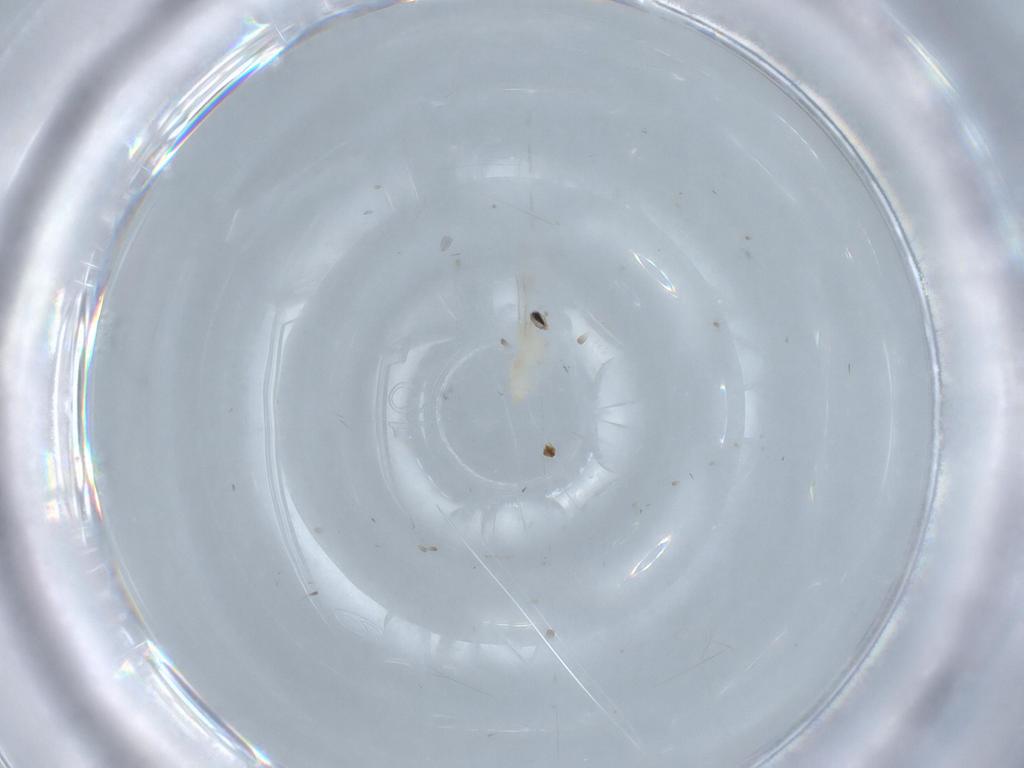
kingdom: Animalia
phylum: Arthropoda
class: Insecta
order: Diptera
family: Cecidomyiidae
